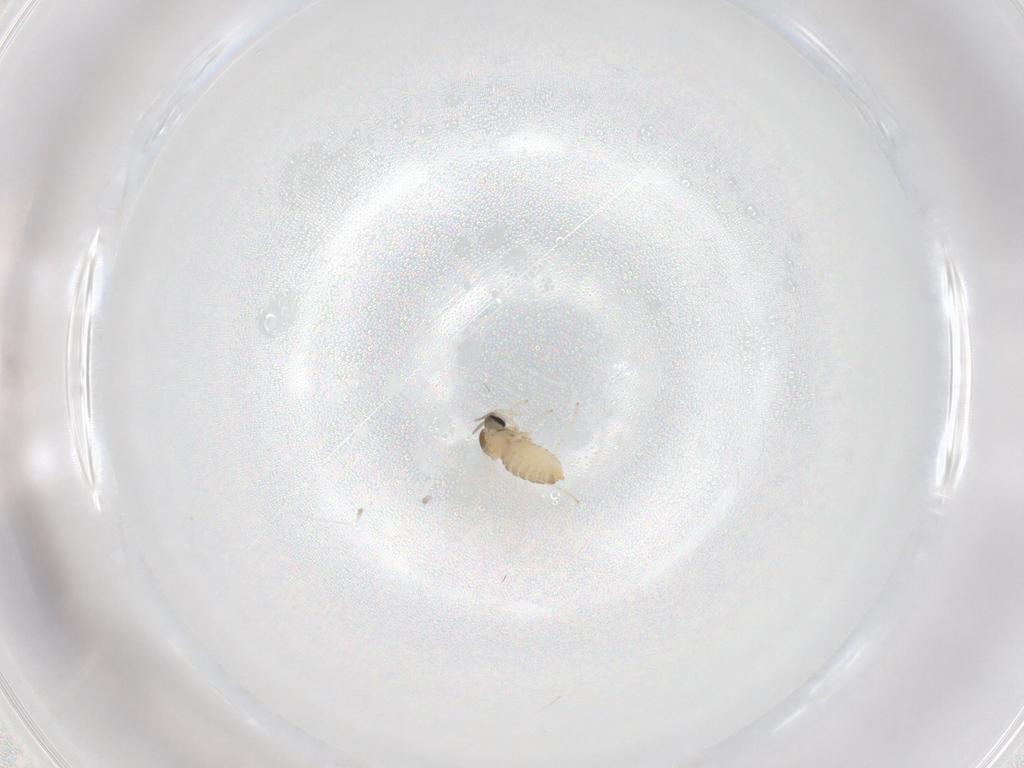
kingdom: Animalia
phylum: Arthropoda
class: Insecta
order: Diptera
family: Cecidomyiidae
